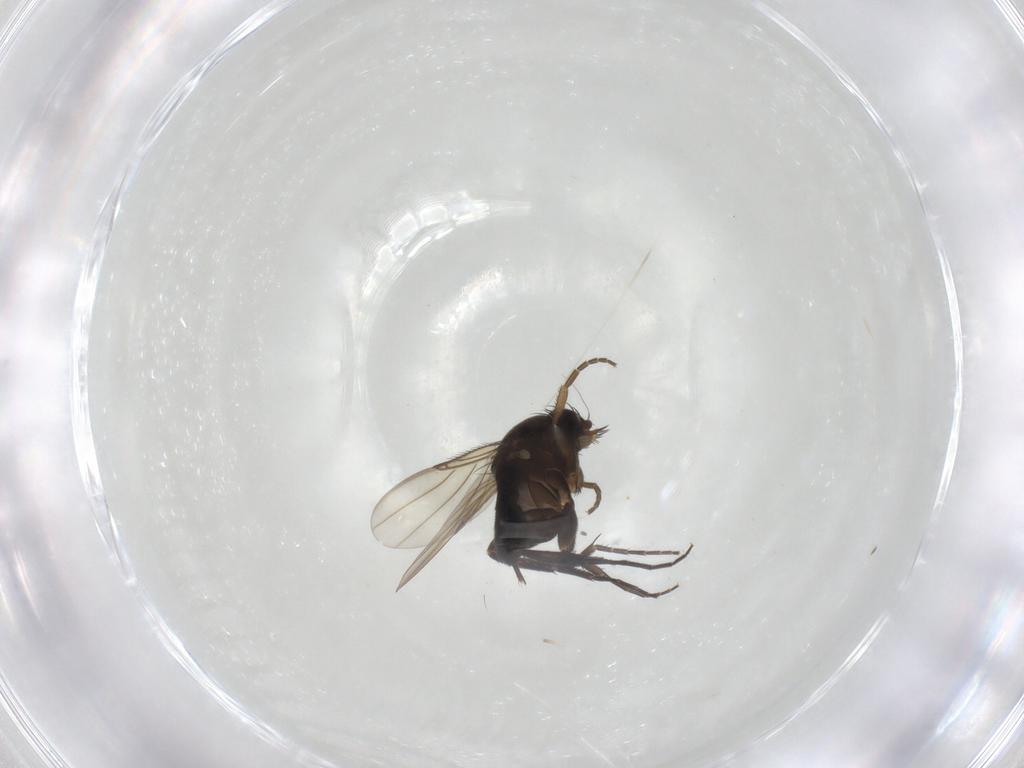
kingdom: Animalia
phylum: Arthropoda
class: Insecta
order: Diptera
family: Phoridae
